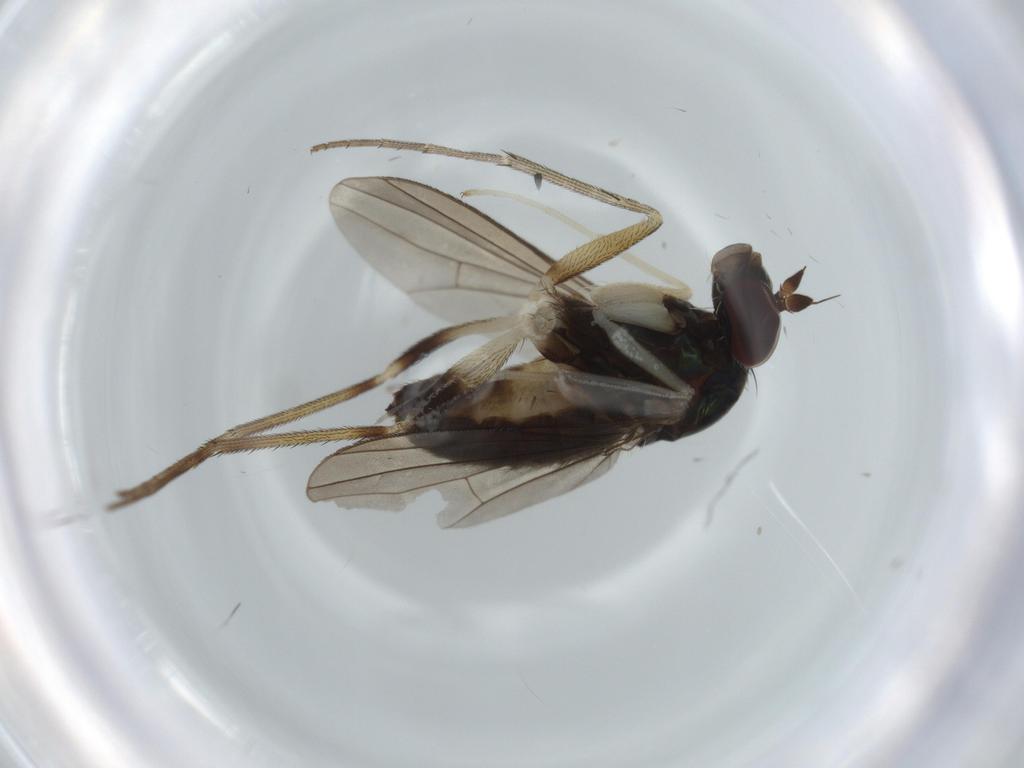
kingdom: Animalia
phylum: Arthropoda
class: Insecta
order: Diptera
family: Dolichopodidae
